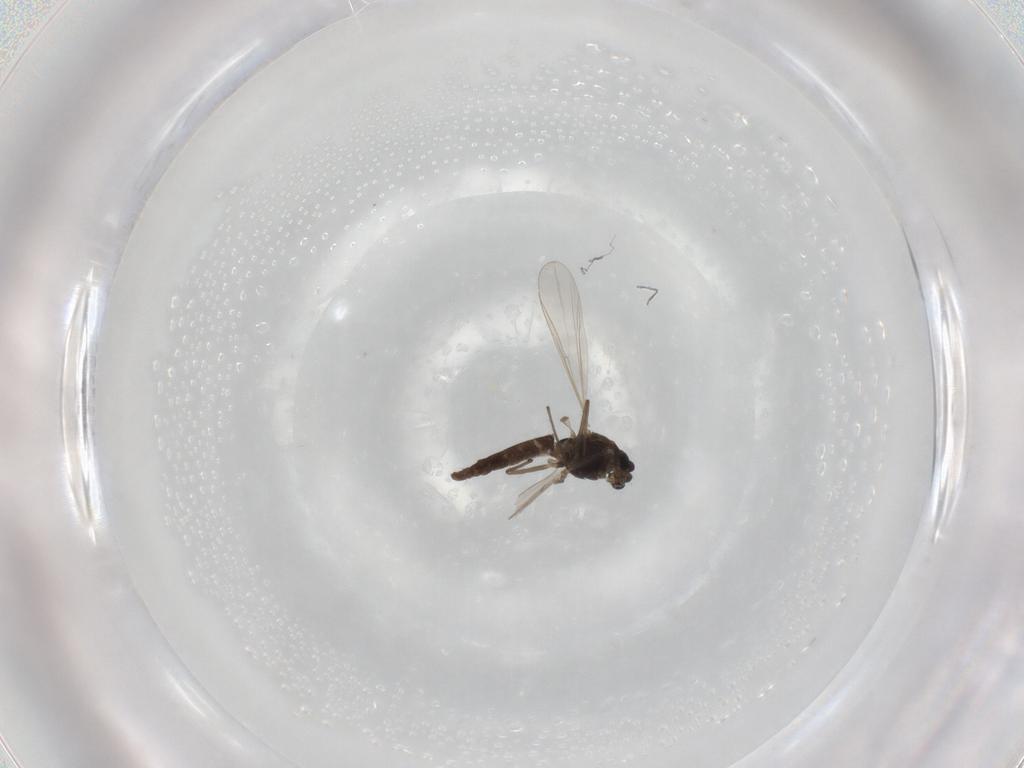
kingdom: Animalia
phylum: Arthropoda
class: Insecta
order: Diptera
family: Chironomidae
